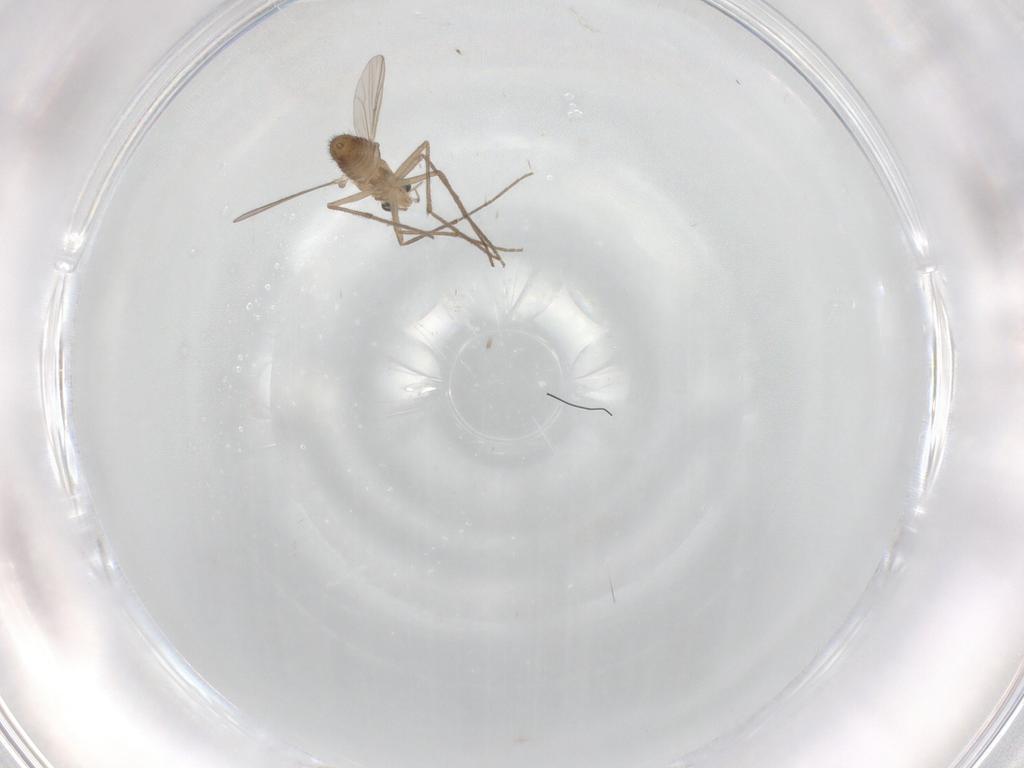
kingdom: Animalia
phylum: Arthropoda
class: Insecta
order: Diptera
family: Chironomidae
